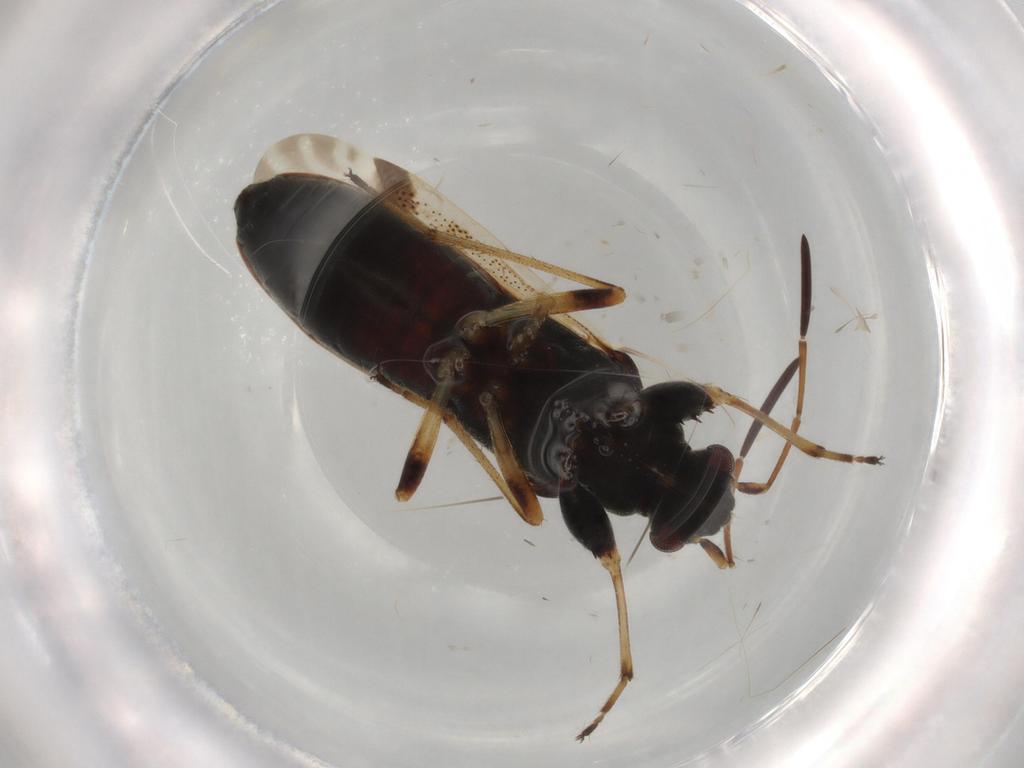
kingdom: Animalia
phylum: Arthropoda
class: Insecta
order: Hemiptera
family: Rhyparochromidae
